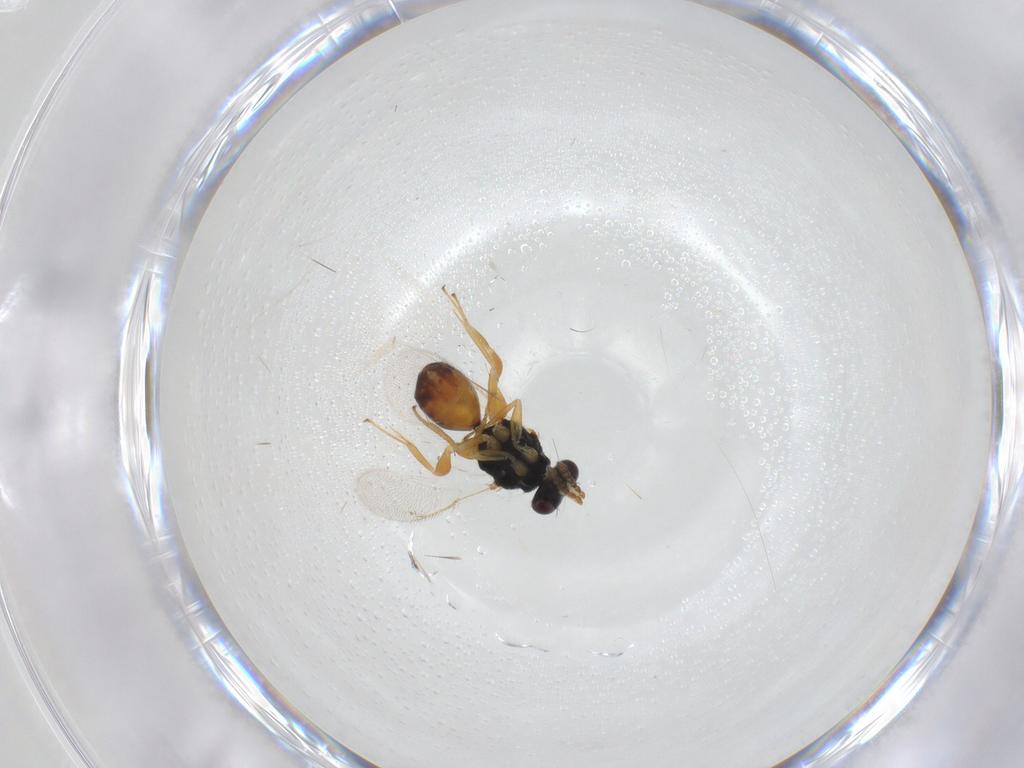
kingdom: Animalia
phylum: Arthropoda
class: Insecta
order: Hymenoptera
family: Eulophidae
